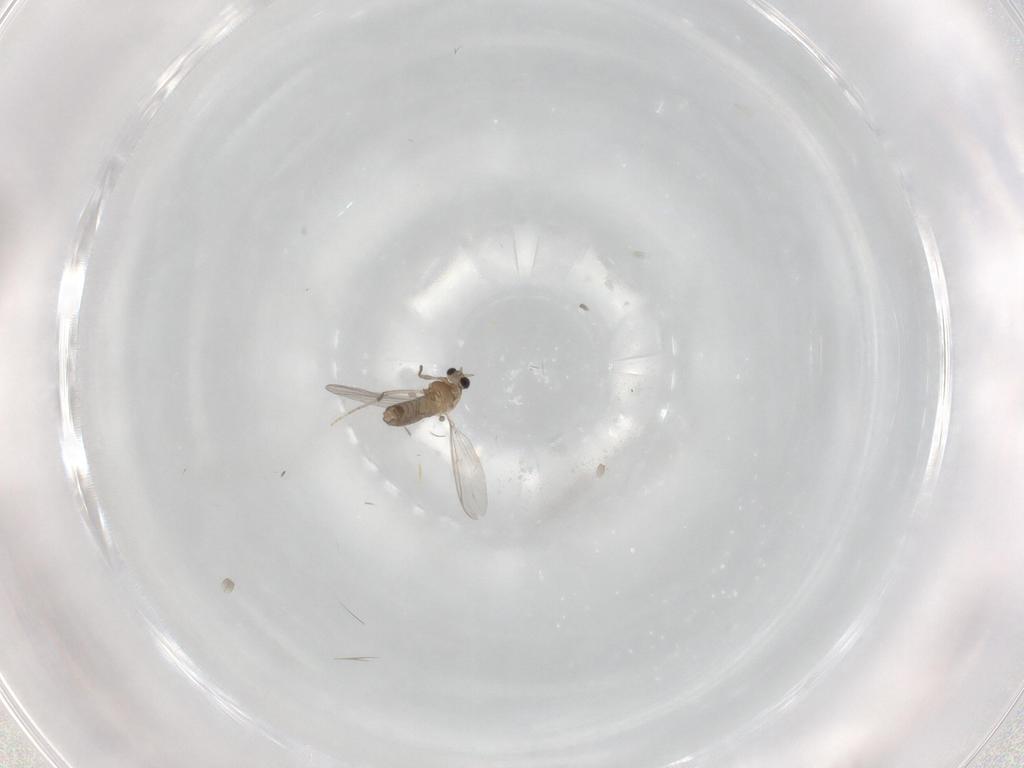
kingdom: Animalia
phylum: Arthropoda
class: Insecta
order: Diptera
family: Chironomidae
